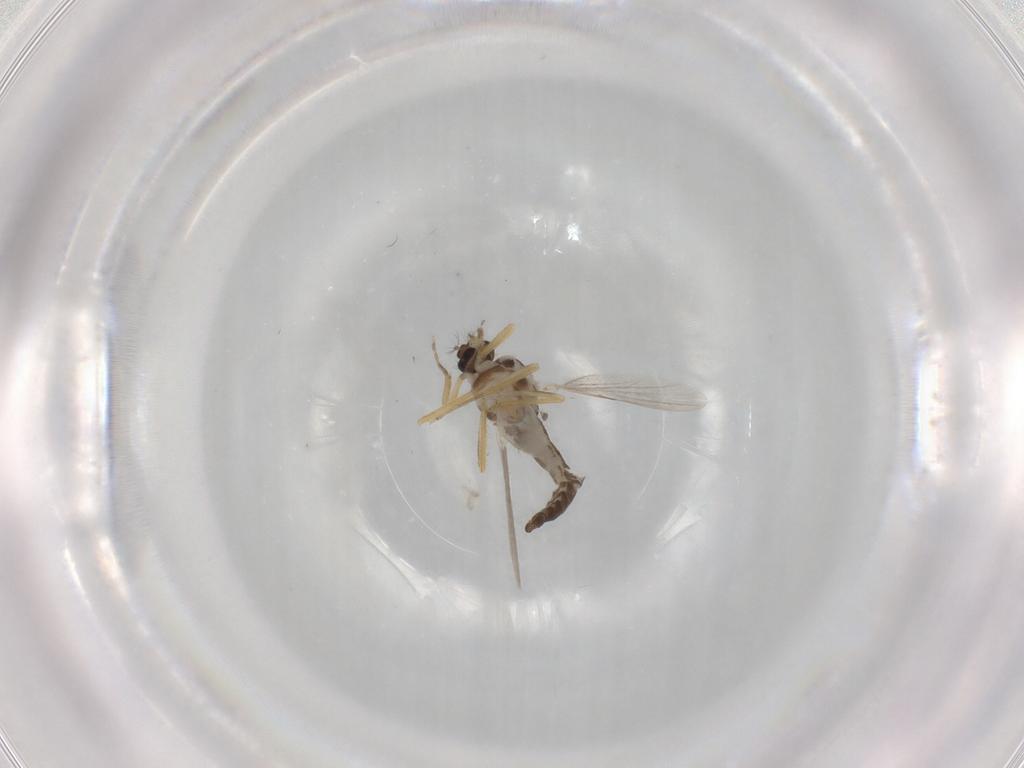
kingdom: Animalia
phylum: Arthropoda
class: Insecta
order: Diptera
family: Ceratopogonidae
